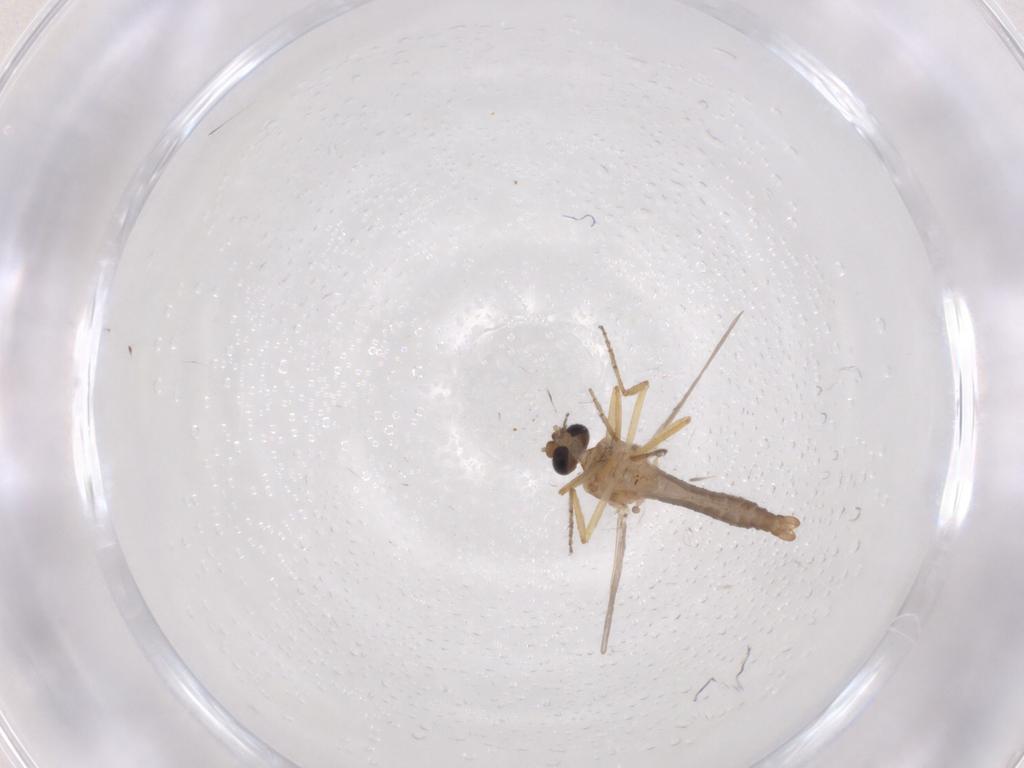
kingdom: Animalia
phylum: Arthropoda
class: Insecta
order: Diptera
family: Ceratopogonidae
